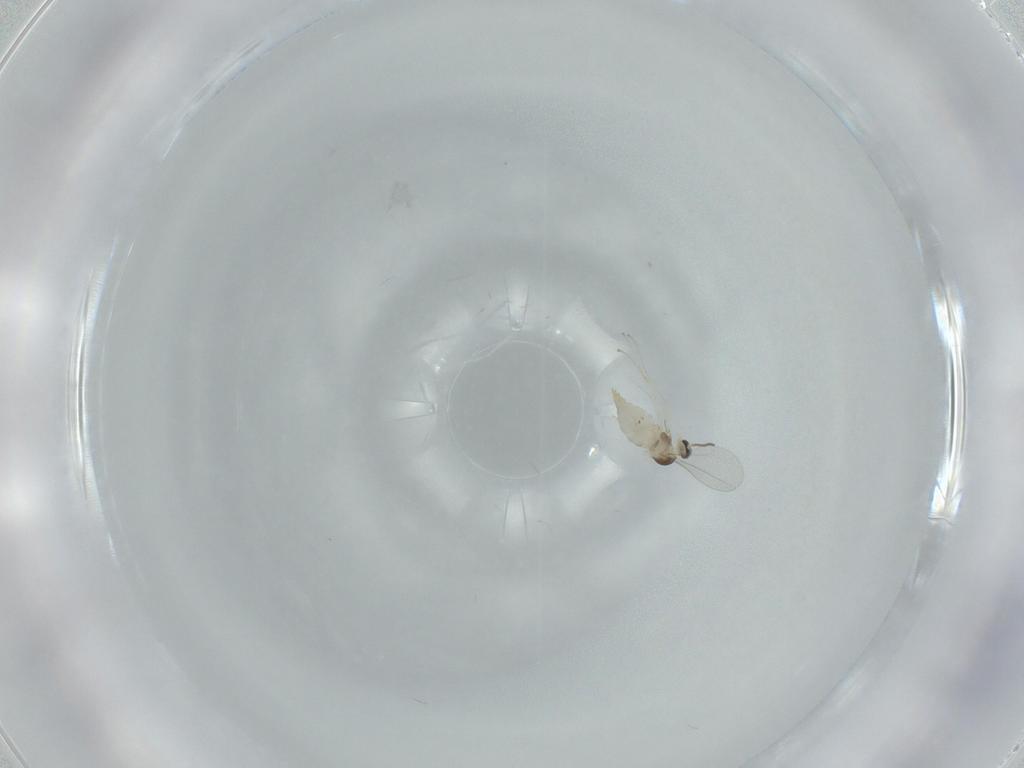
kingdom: Animalia
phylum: Arthropoda
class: Insecta
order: Diptera
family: Cecidomyiidae
